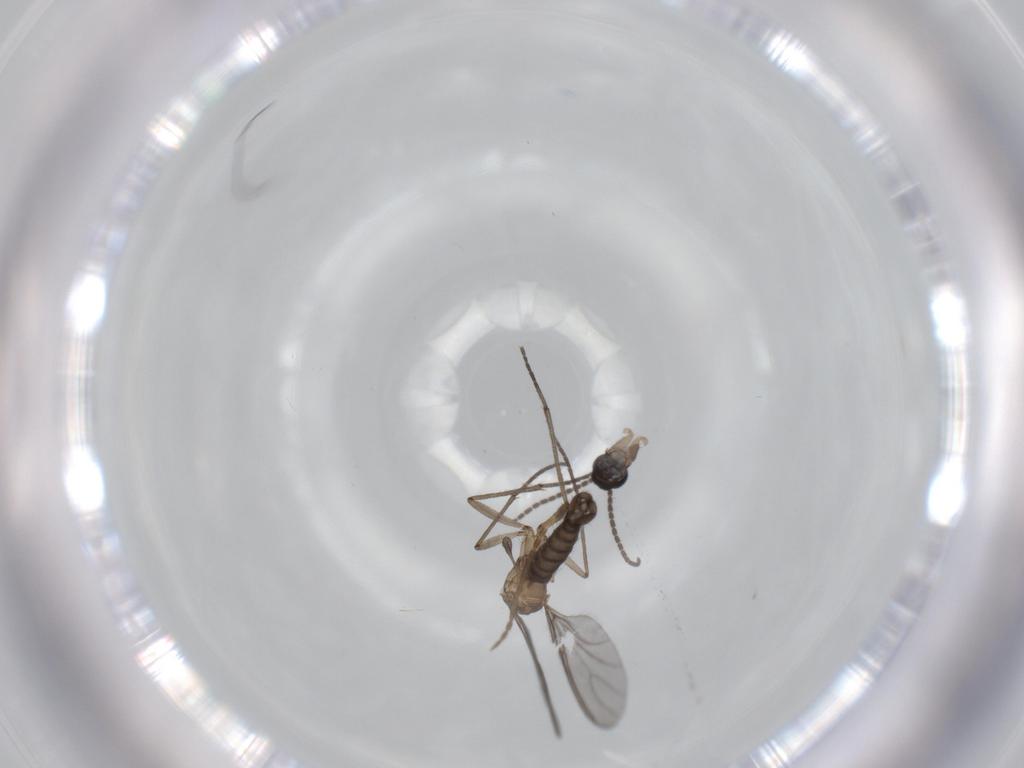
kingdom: Animalia
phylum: Arthropoda
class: Insecta
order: Diptera
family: Sciaridae
